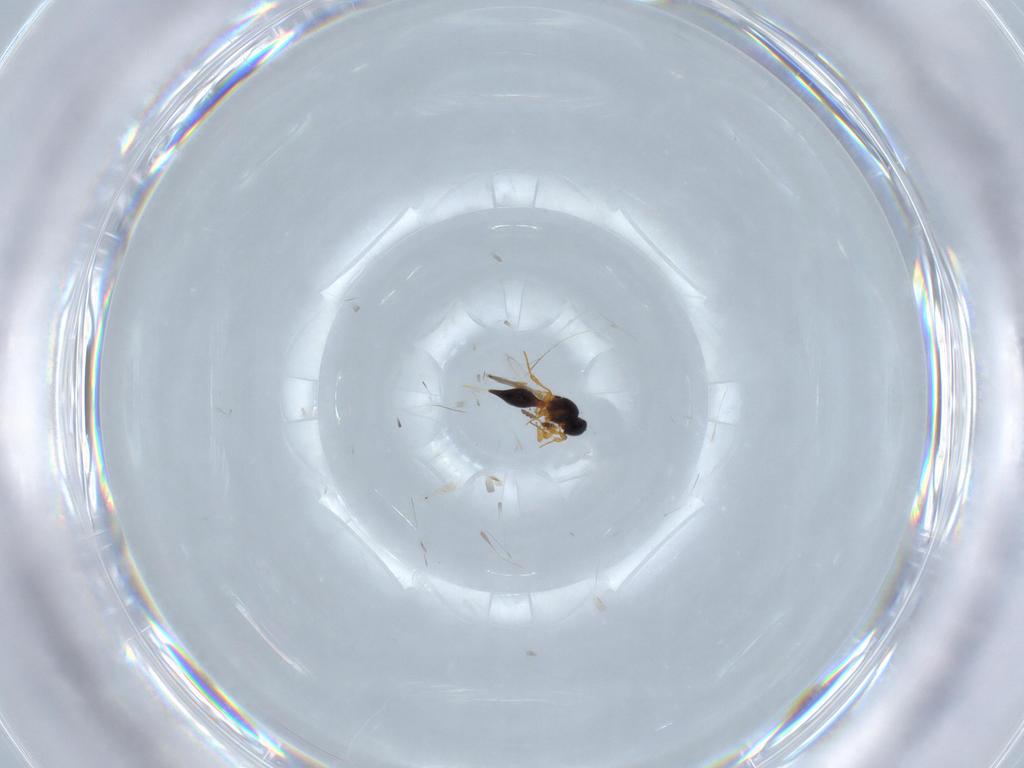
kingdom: Animalia
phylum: Arthropoda
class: Insecta
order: Hymenoptera
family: Platygastridae
